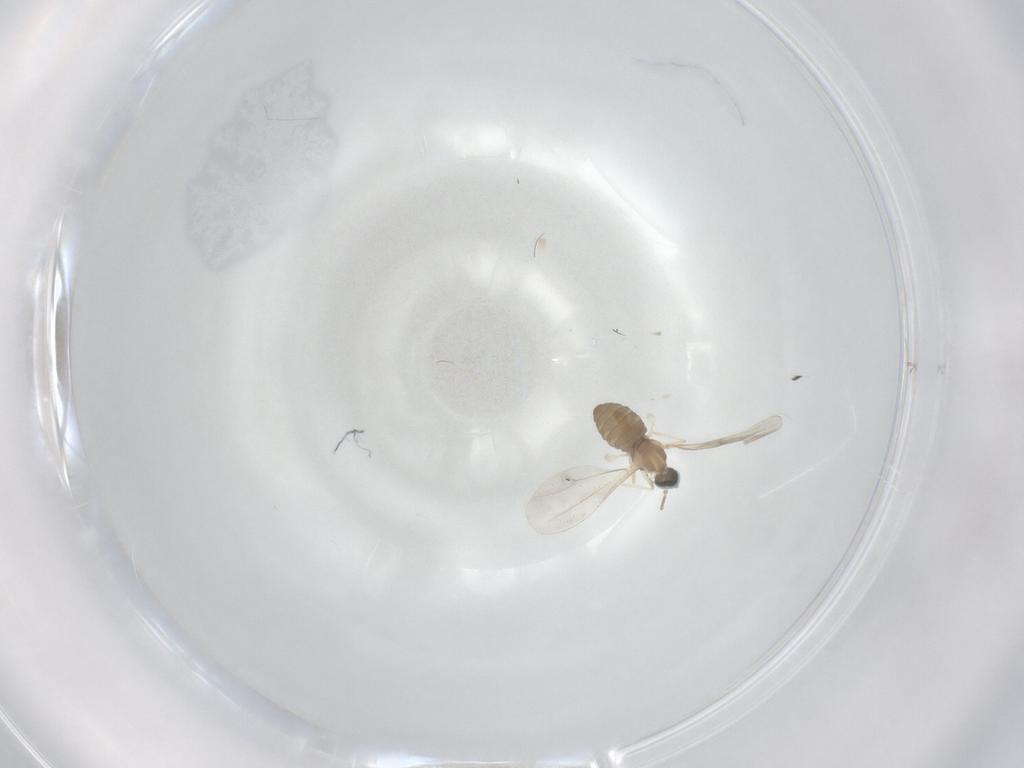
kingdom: Animalia
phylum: Arthropoda
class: Insecta
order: Diptera
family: Cecidomyiidae
